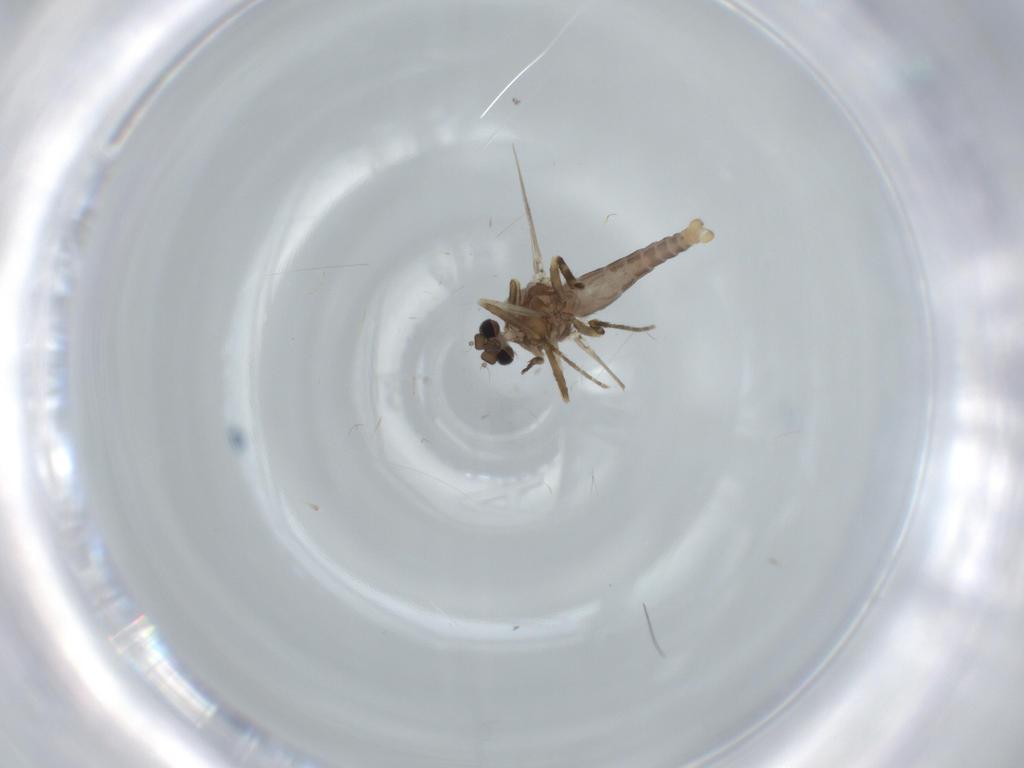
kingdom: Animalia
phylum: Arthropoda
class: Insecta
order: Diptera
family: Ceratopogonidae
